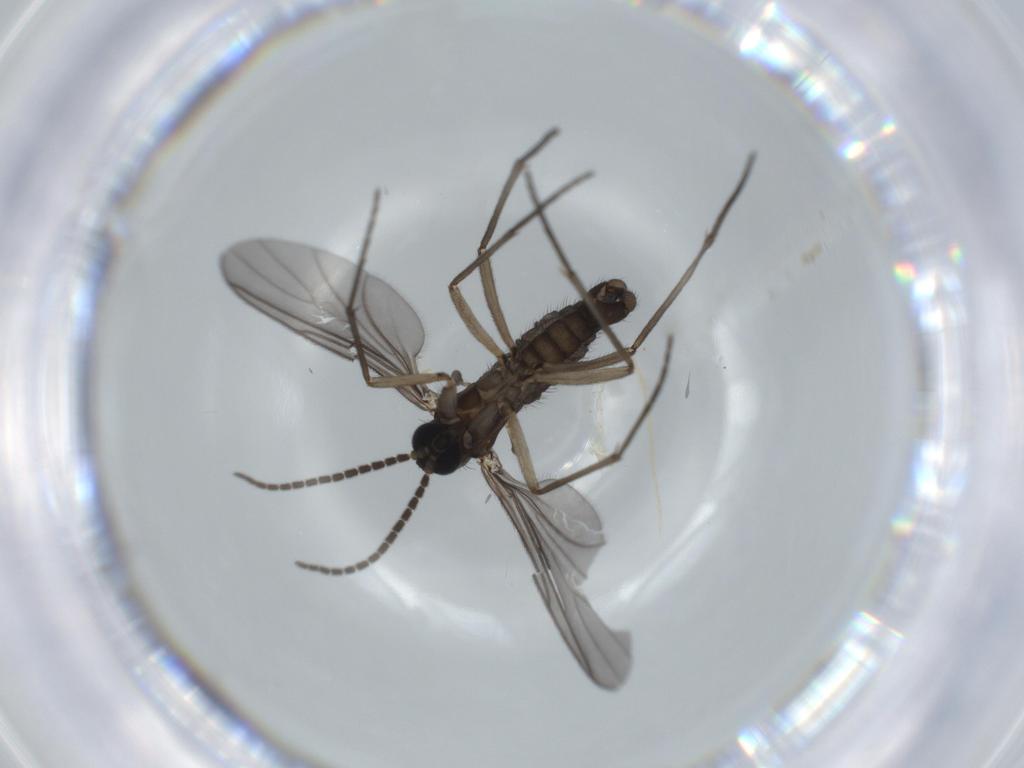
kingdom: Animalia
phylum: Arthropoda
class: Insecta
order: Diptera
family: Sciaridae
